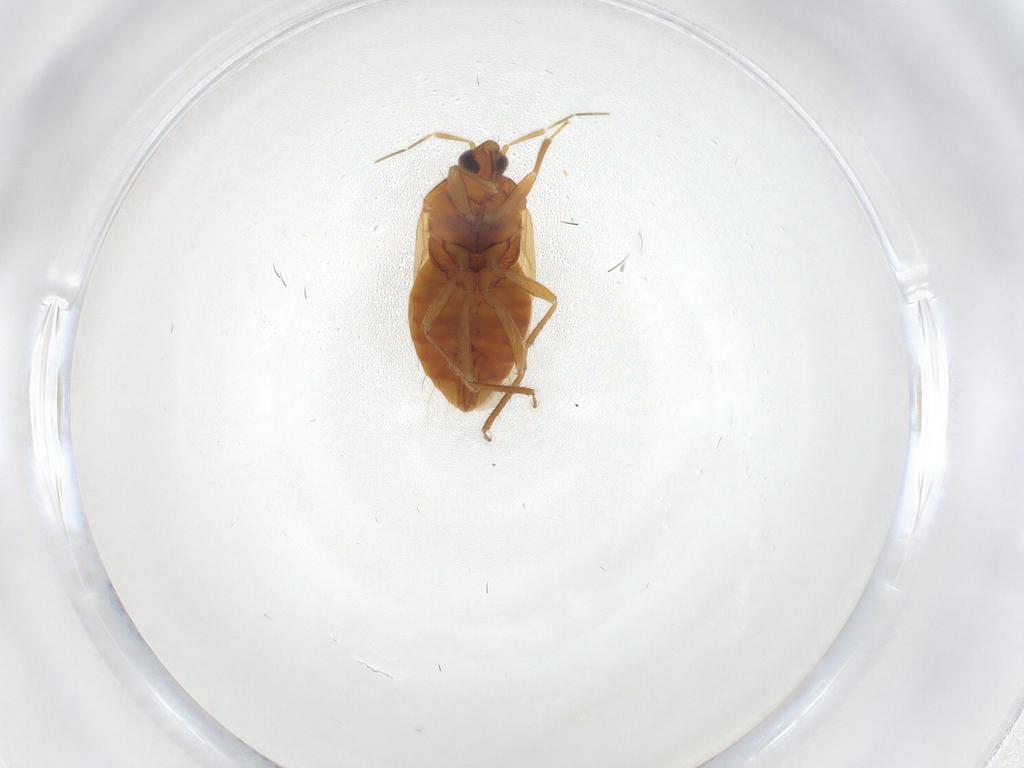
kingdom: Animalia
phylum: Arthropoda
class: Insecta
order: Hemiptera
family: Anthocoridae
